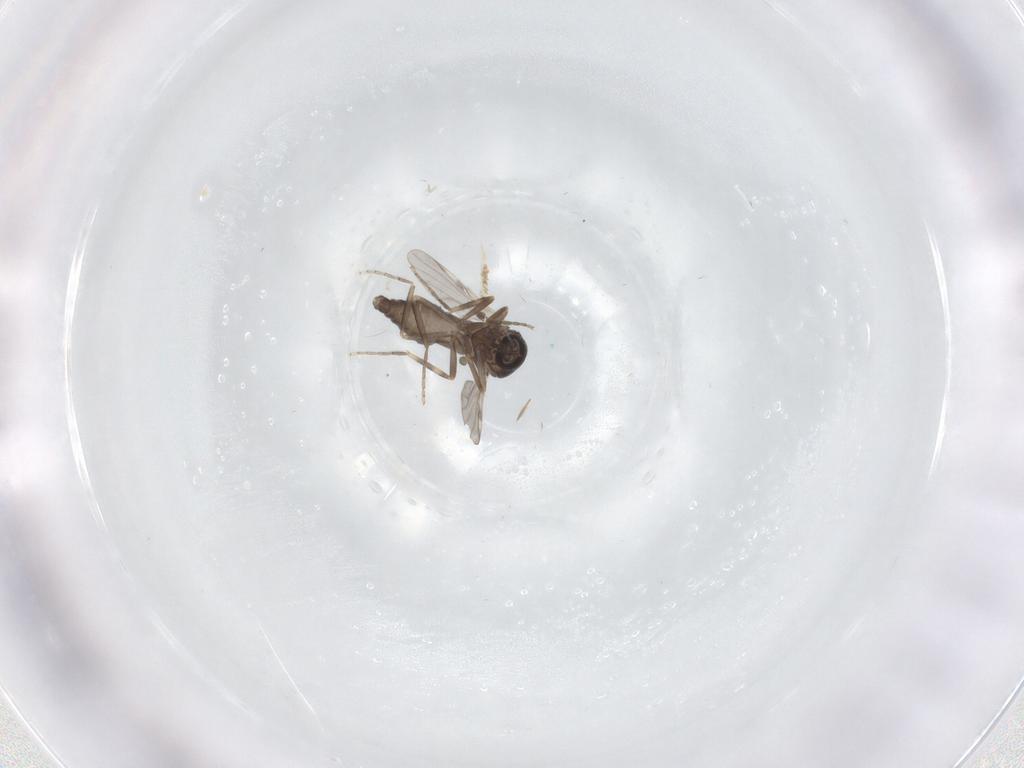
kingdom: Animalia
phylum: Arthropoda
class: Insecta
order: Diptera
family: Ceratopogonidae
